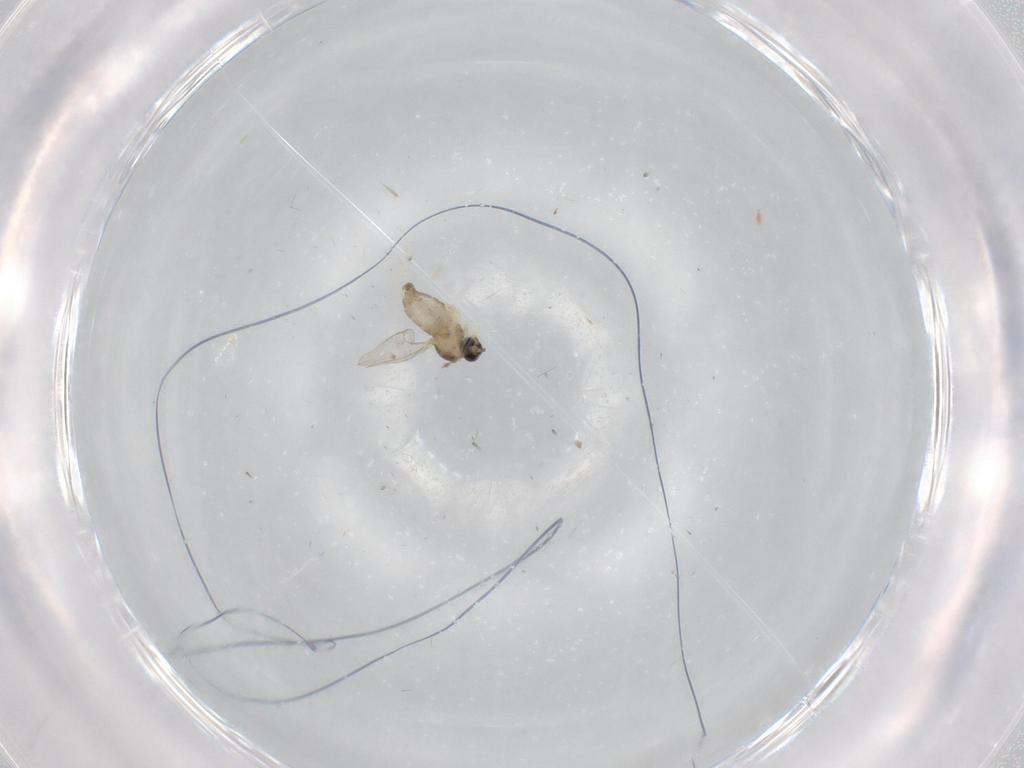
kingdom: Animalia
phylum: Arthropoda
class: Insecta
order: Diptera
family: Cecidomyiidae
